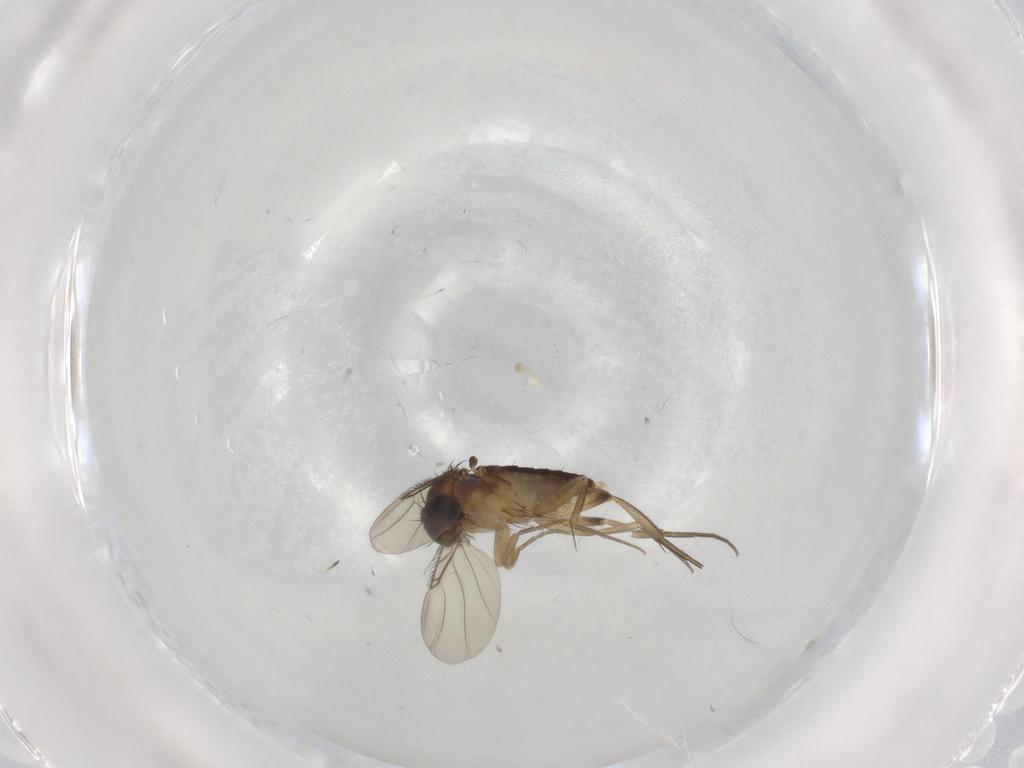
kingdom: Animalia
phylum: Arthropoda
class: Insecta
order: Diptera
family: Phoridae
